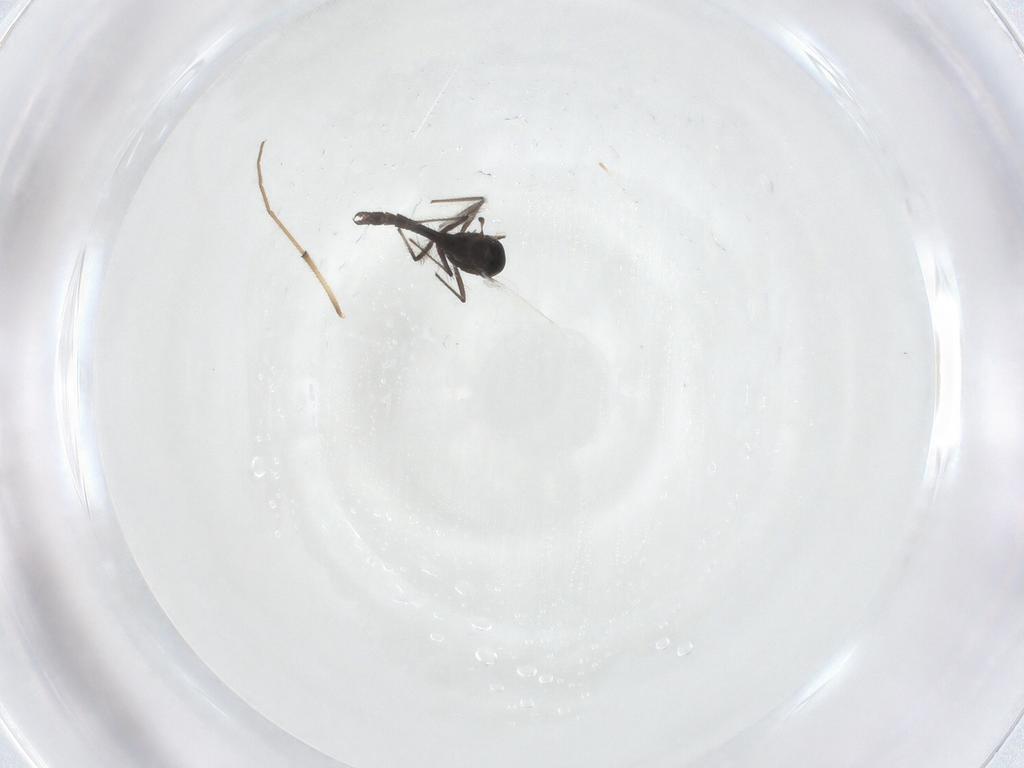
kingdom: Animalia
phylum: Arthropoda
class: Insecta
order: Diptera
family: Chironomidae
